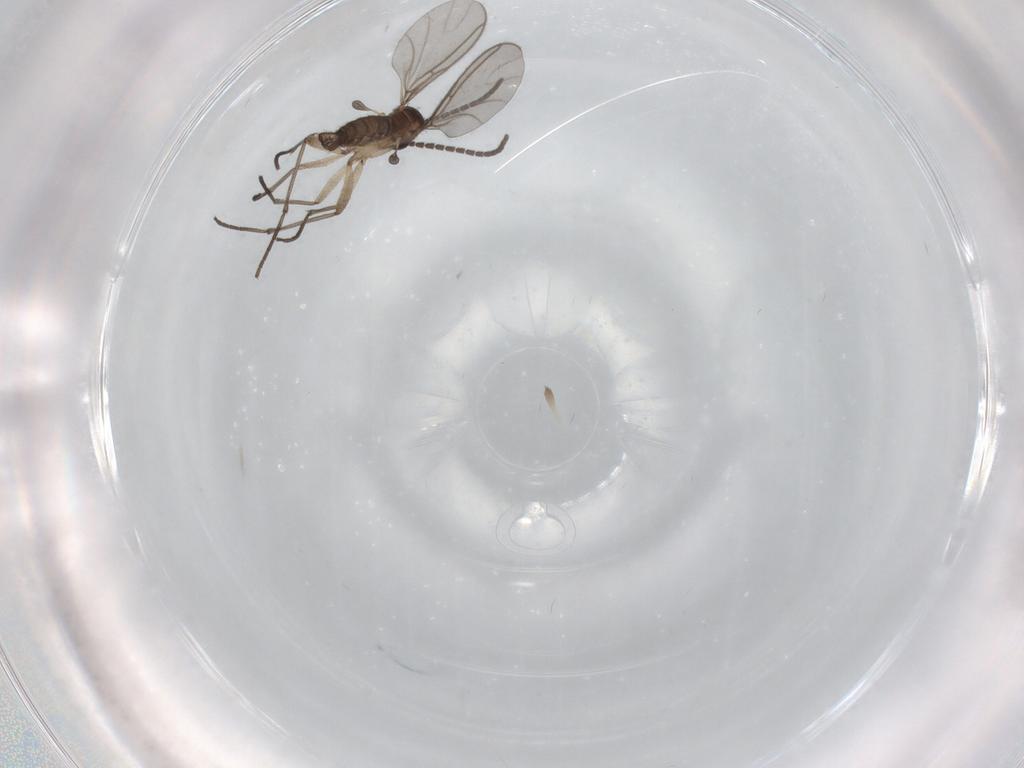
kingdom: Animalia
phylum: Arthropoda
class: Insecta
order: Diptera
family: Sciaridae
